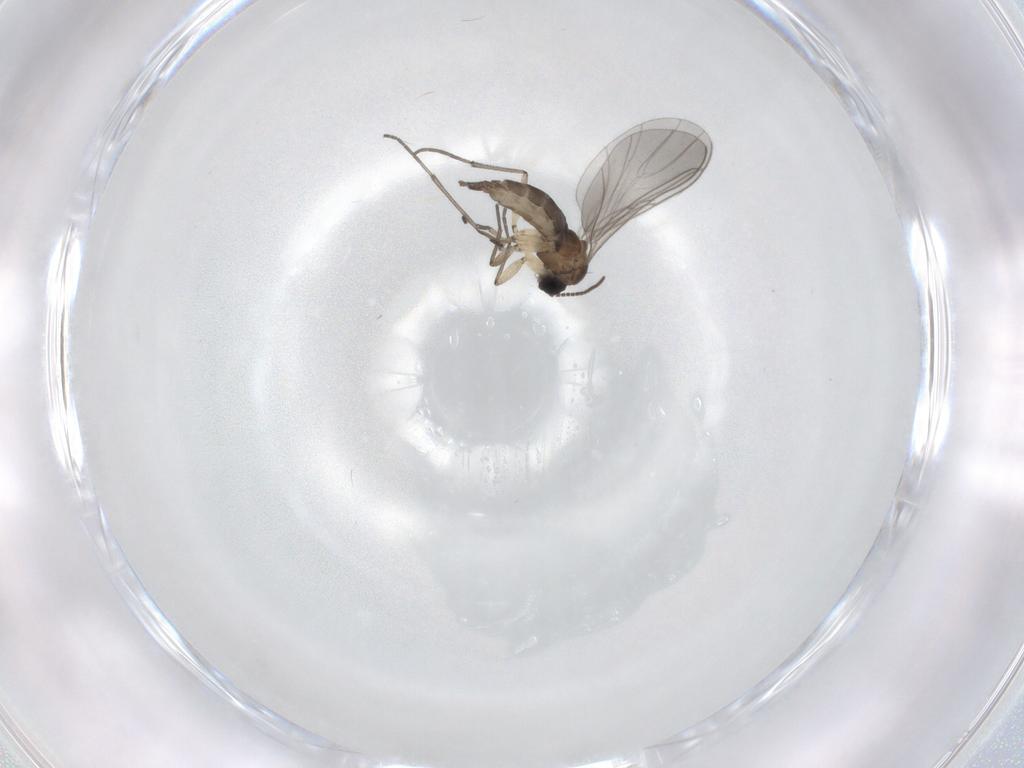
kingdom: Animalia
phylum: Arthropoda
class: Insecta
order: Diptera
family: Sciaridae
